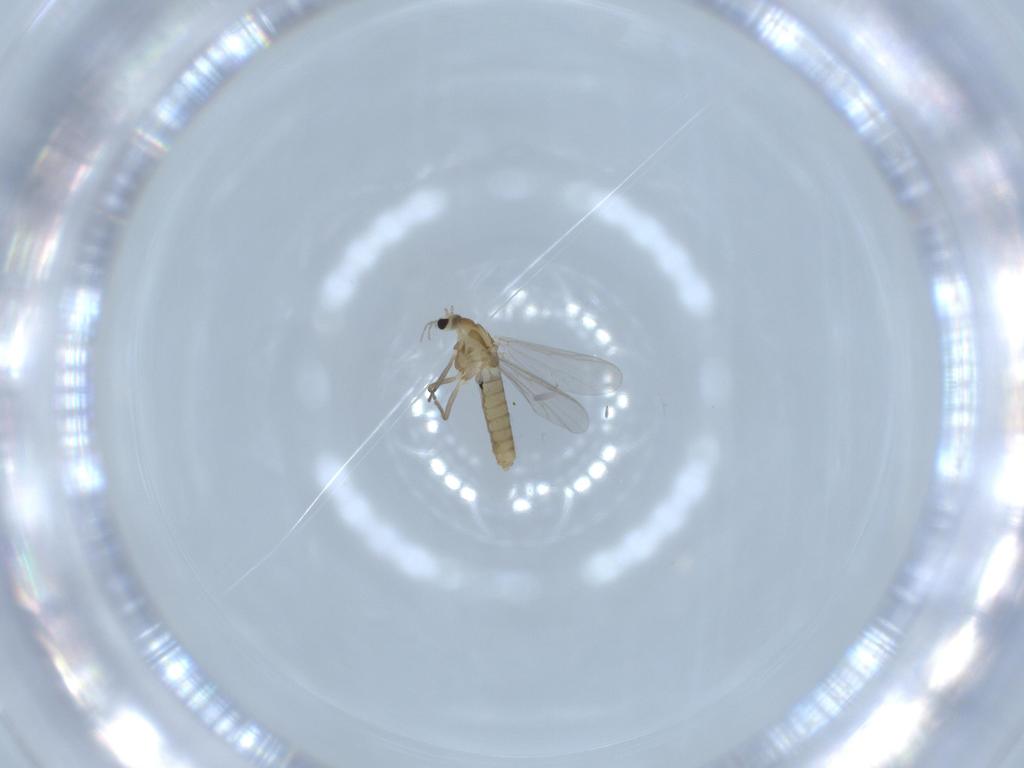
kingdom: Animalia
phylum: Arthropoda
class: Insecta
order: Diptera
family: Chironomidae
